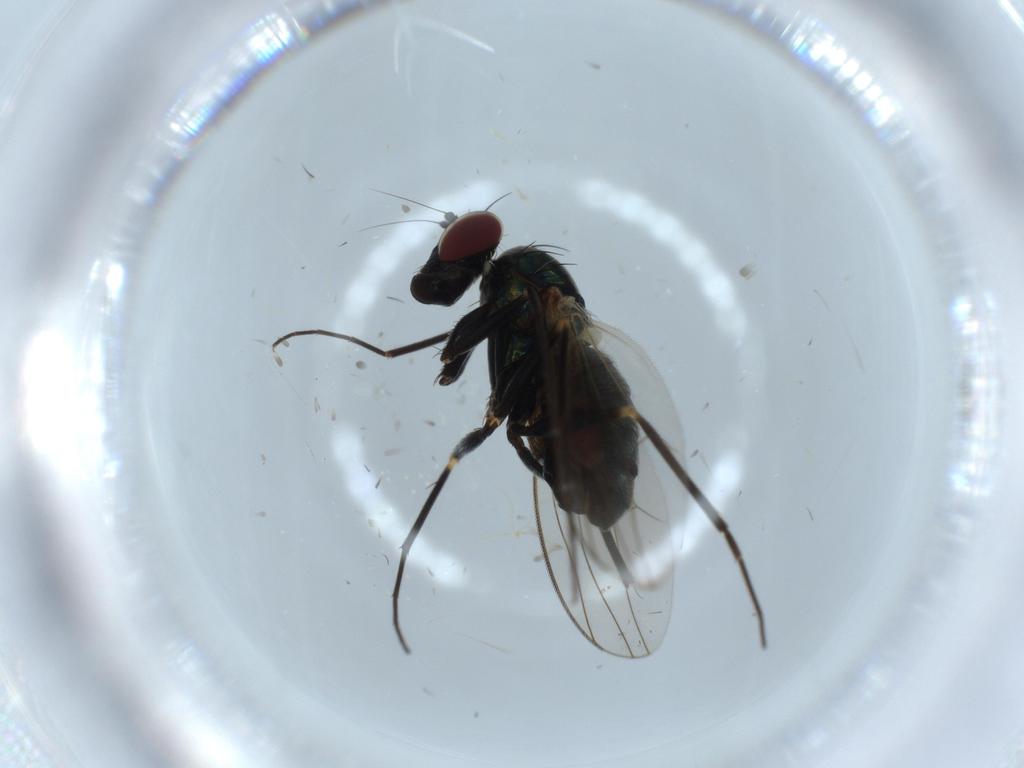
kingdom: Animalia
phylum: Arthropoda
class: Insecta
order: Diptera
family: Dolichopodidae
